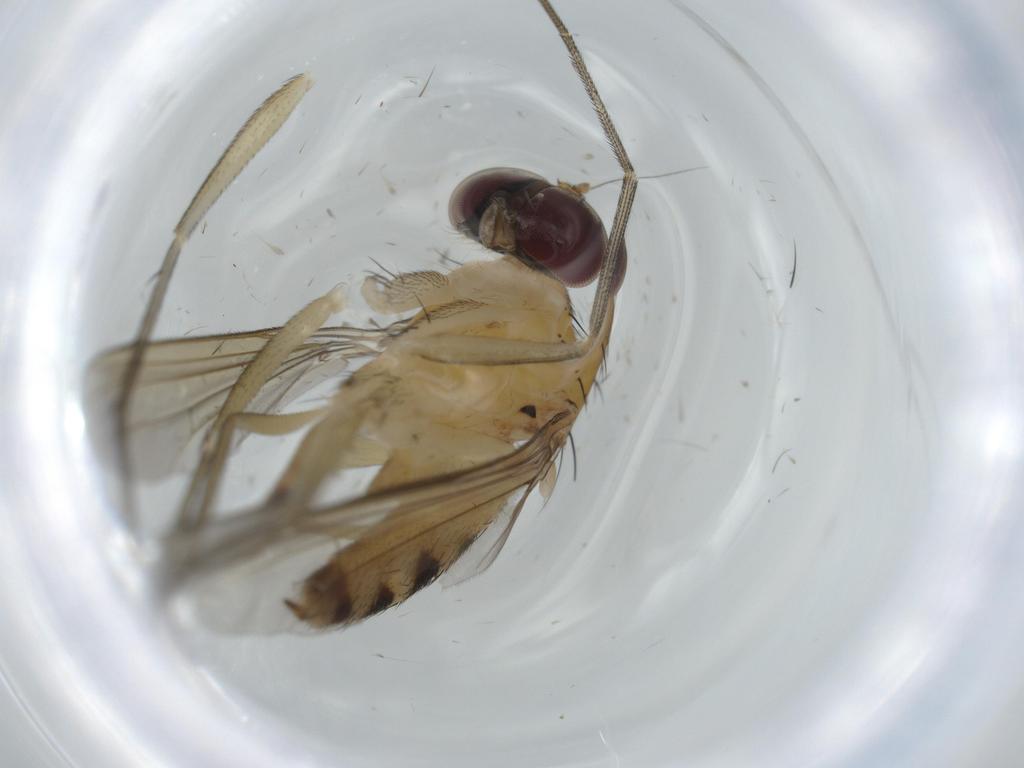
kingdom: Animalia
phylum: Arthropoda
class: Insecta
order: Diptera
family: Dolichopodidae
